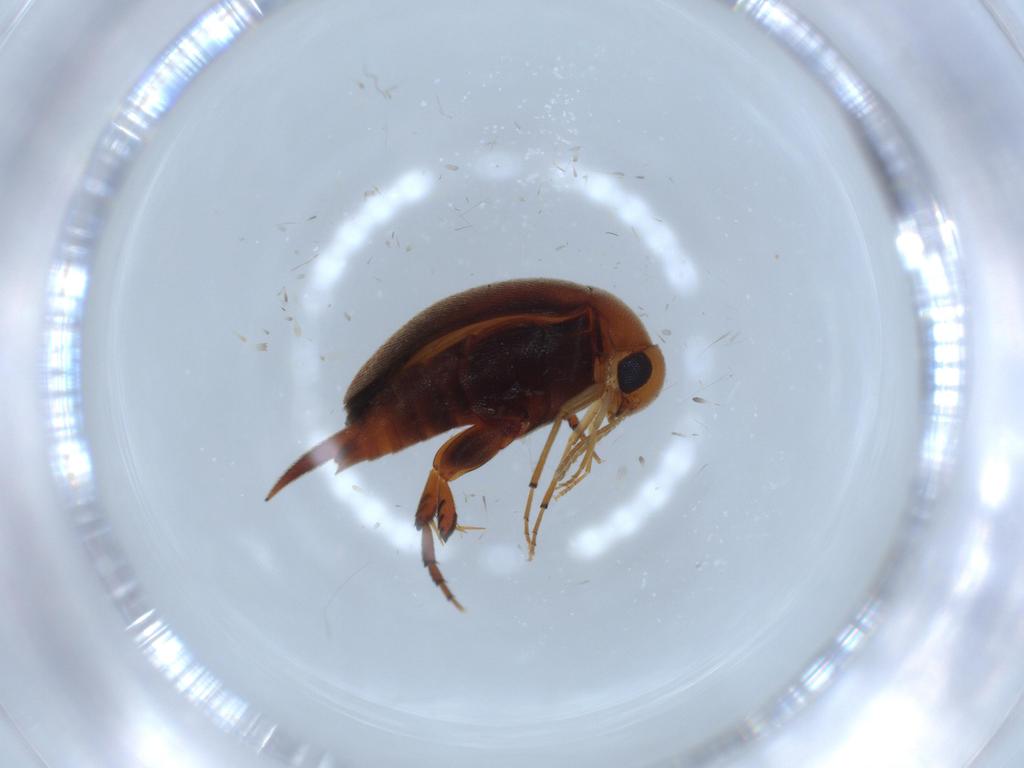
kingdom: Animalia
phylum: Arthropoda
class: Insecta
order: Coleoptera
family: Mordellidae
